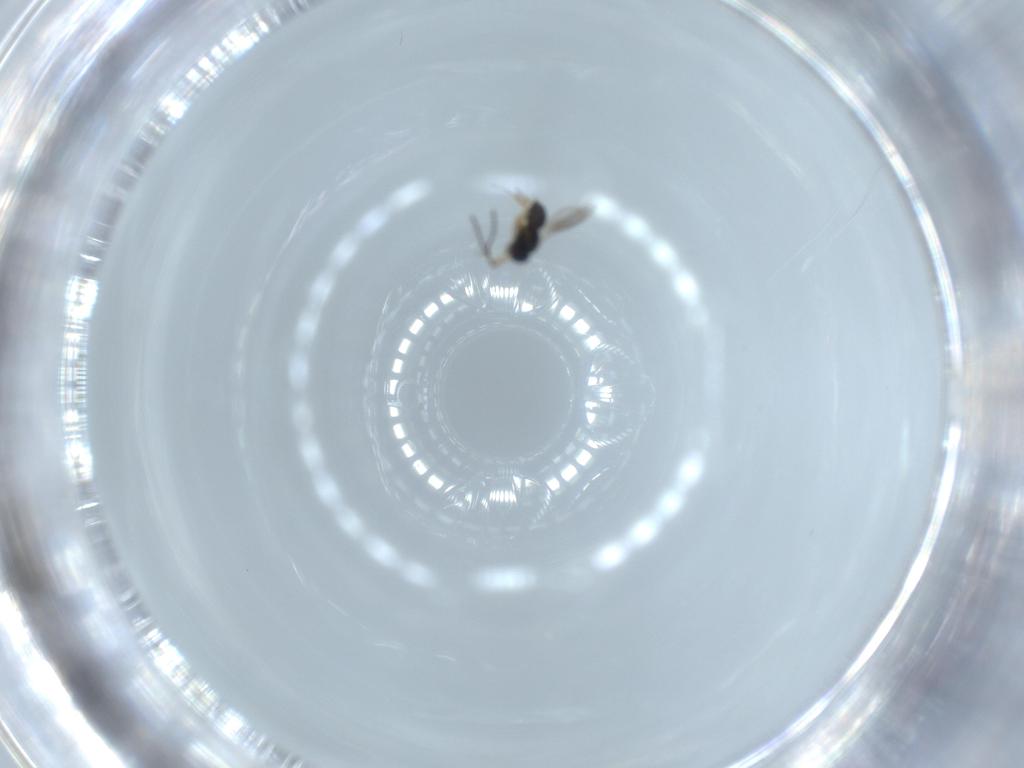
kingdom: Animalia
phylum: Arthropoda
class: Insecta
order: Hymenoptera
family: Scelionidae
